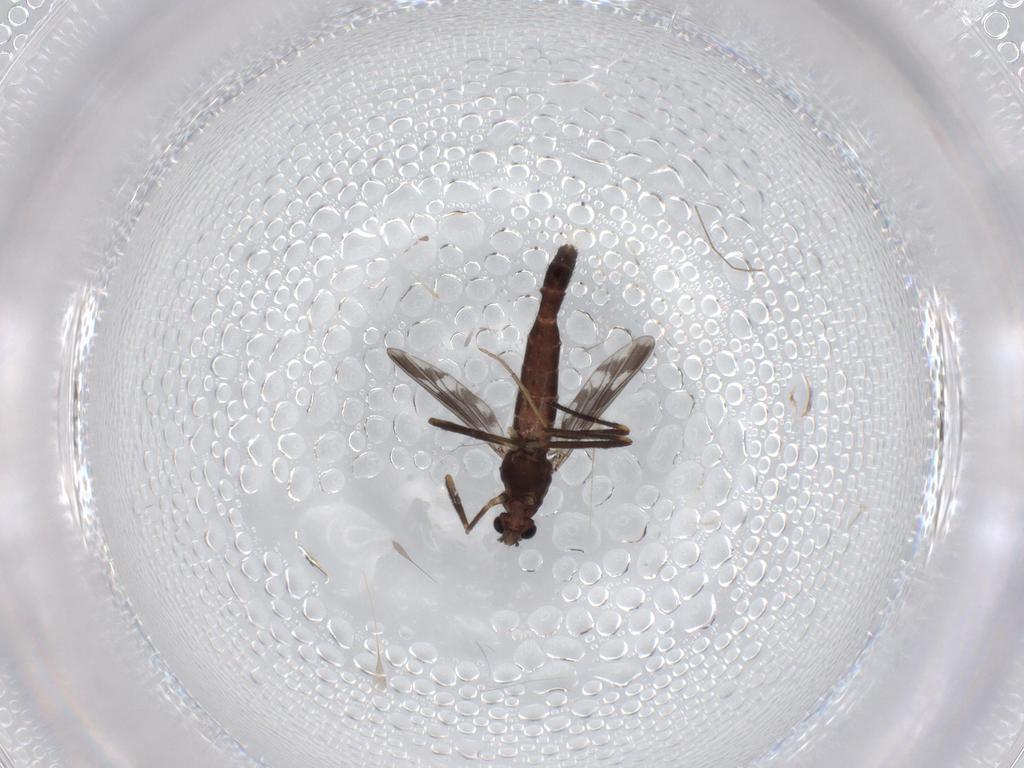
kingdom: Animalia
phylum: Arthropoda
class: Insecta
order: Diptera
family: Chironomidae
